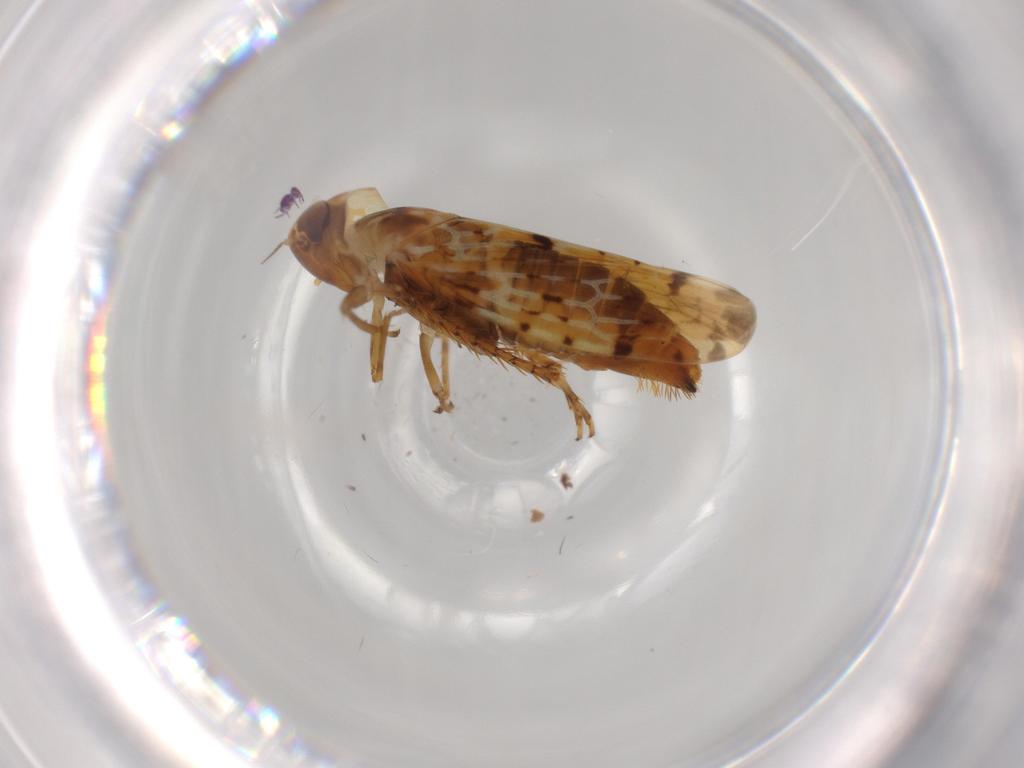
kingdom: Animalia
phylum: Arthropoda
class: Insecta
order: Hemiptera
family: Cicadellidae
